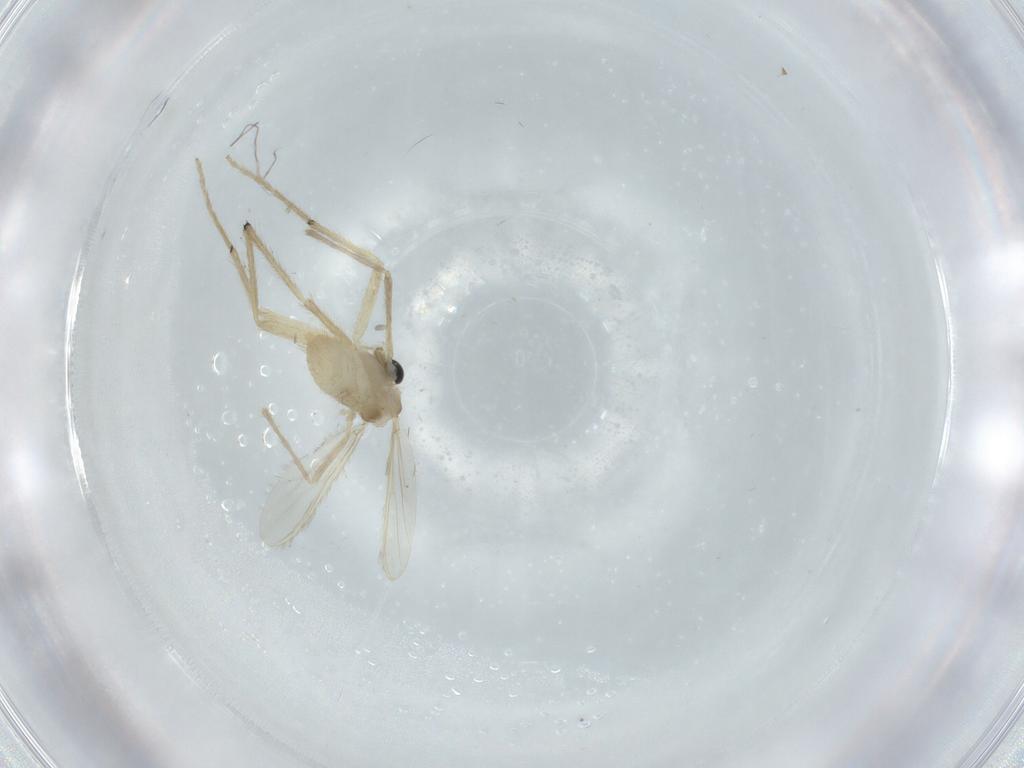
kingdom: Animalia
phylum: Arthropoda
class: Insecta
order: Diptera
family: Chironomidae
